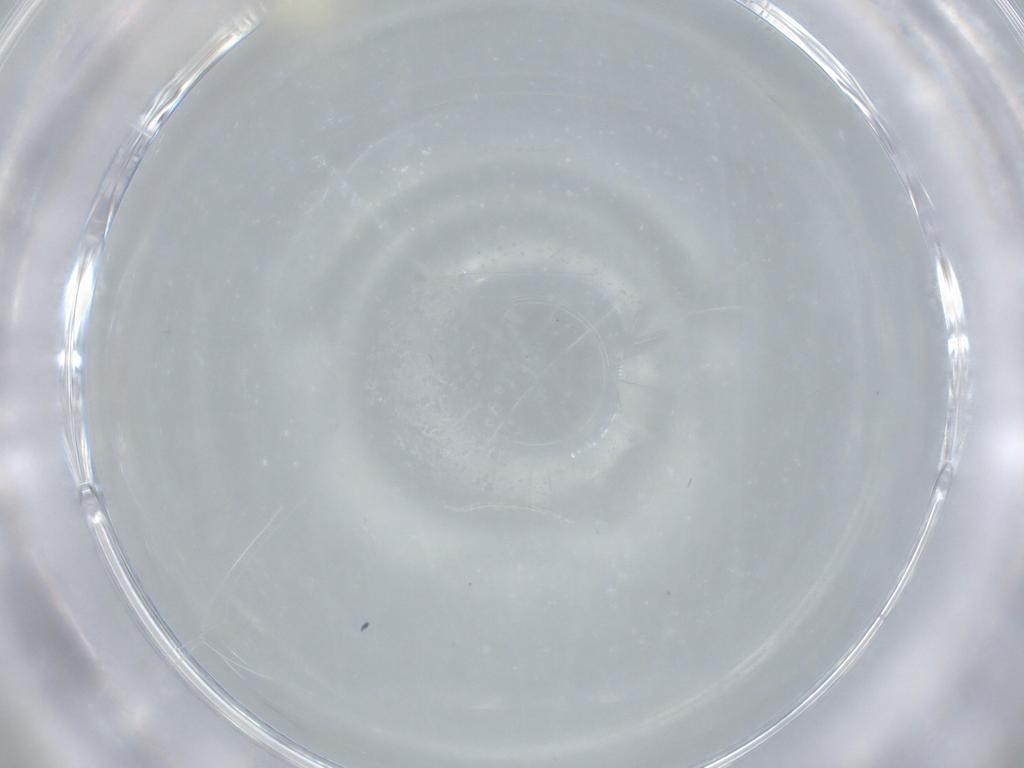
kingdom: Animalia
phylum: Arthropoda
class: Insecta
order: Diptera
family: Cecidomyiidae
